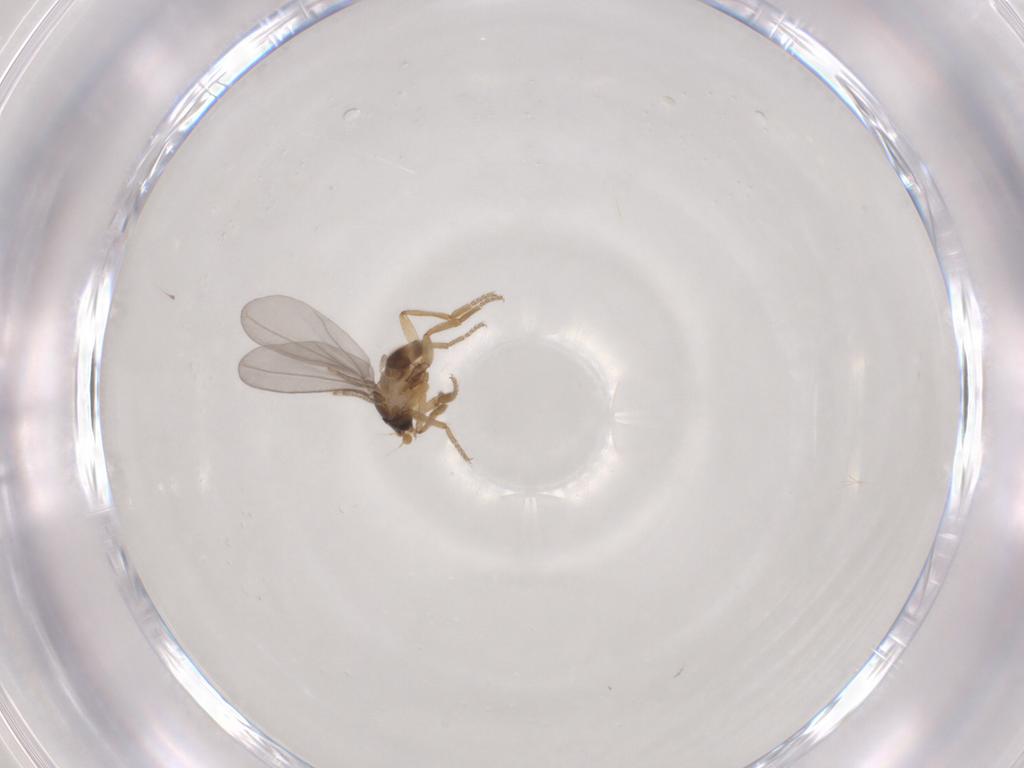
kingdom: Animalia
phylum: Arthropoda
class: Insecta
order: Diptera
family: Phoridae
